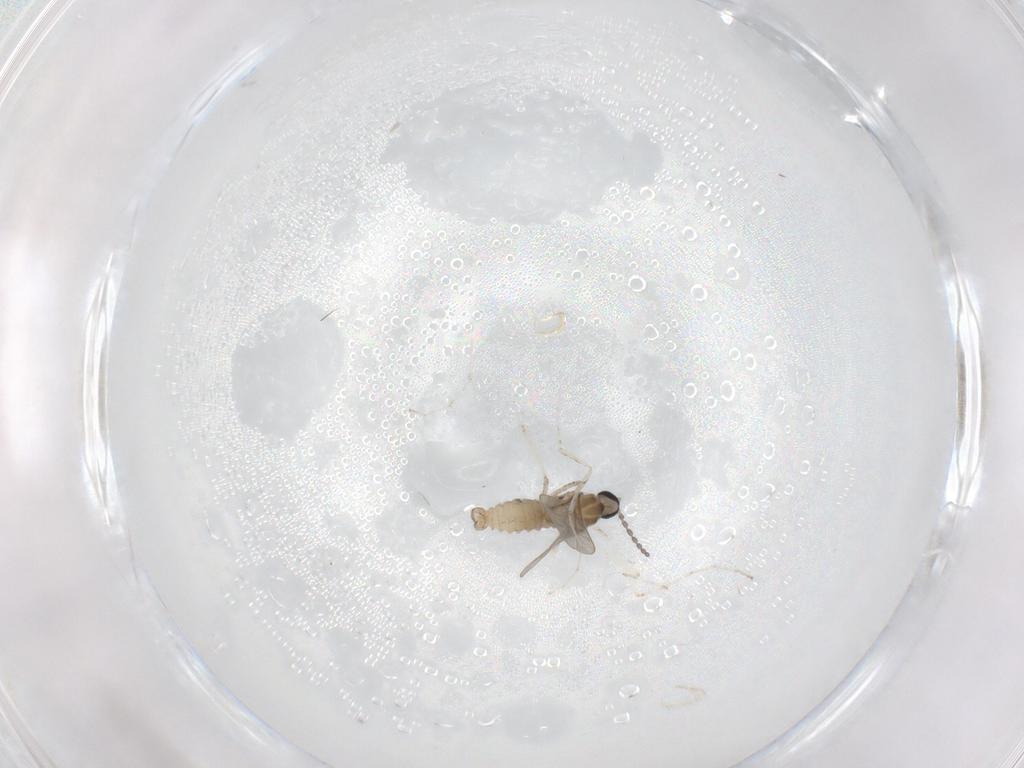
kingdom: Animalia
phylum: Arthropoda
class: Insecta
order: Diptera
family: Cecidomyiidae
